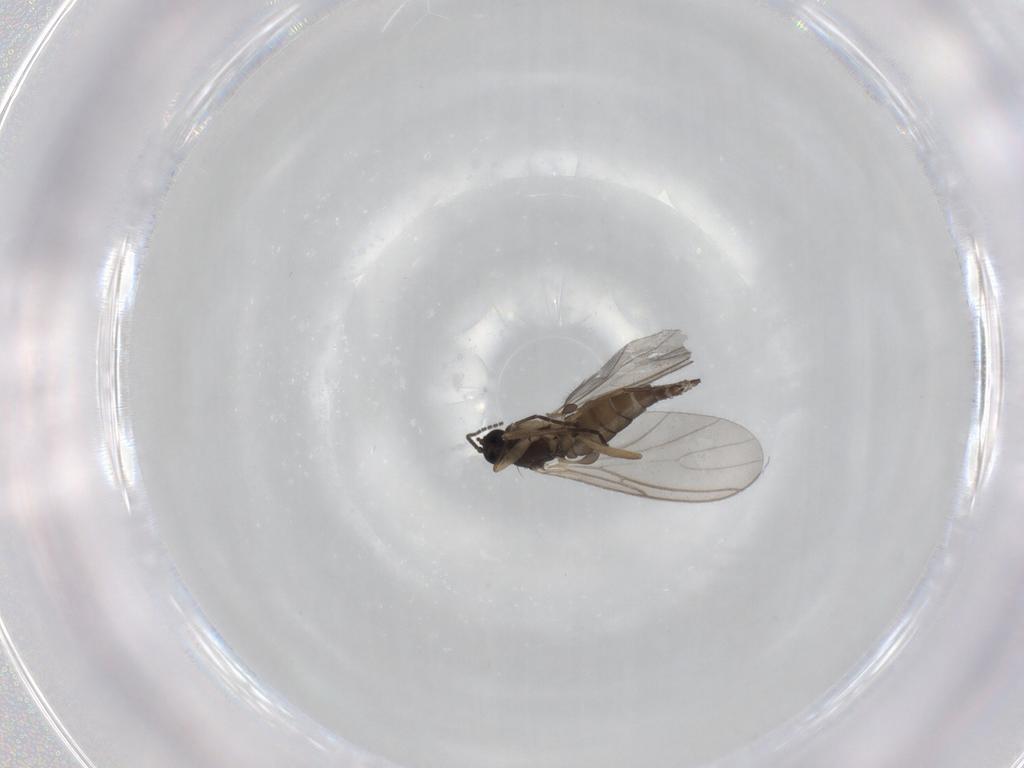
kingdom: Animalia
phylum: Arthropoda
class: Insecta
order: Diptera
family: Sciaridae
